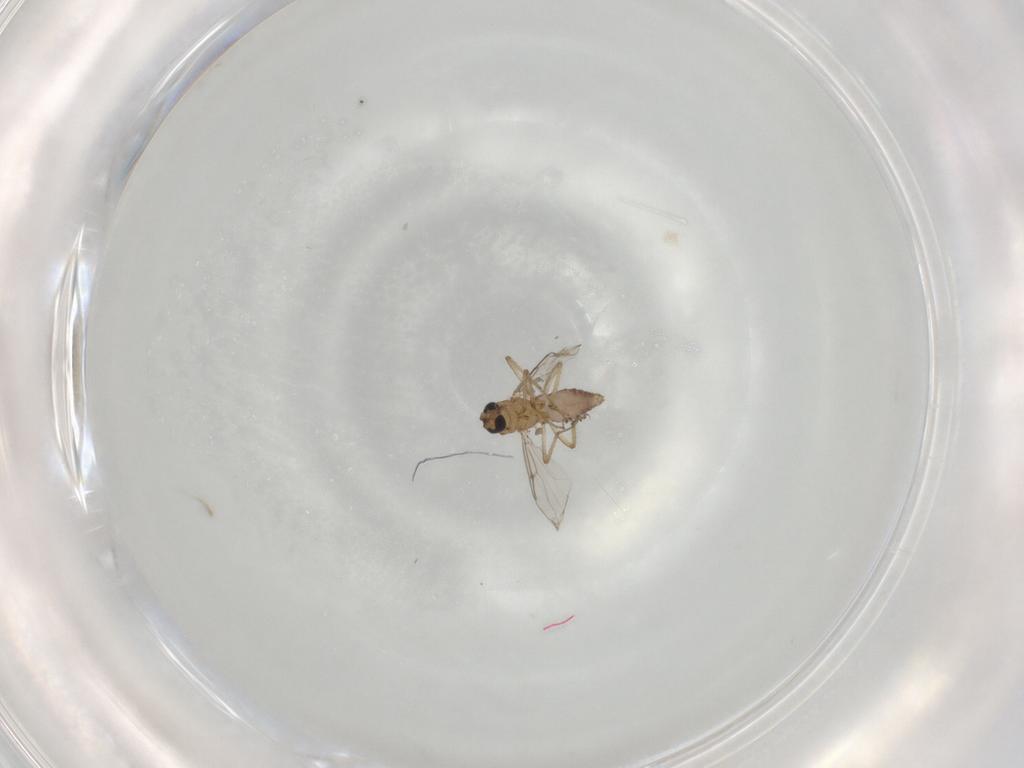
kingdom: Animalia
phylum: Arthropoda
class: Insecta
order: Diptera
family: Ceratopogonidae
